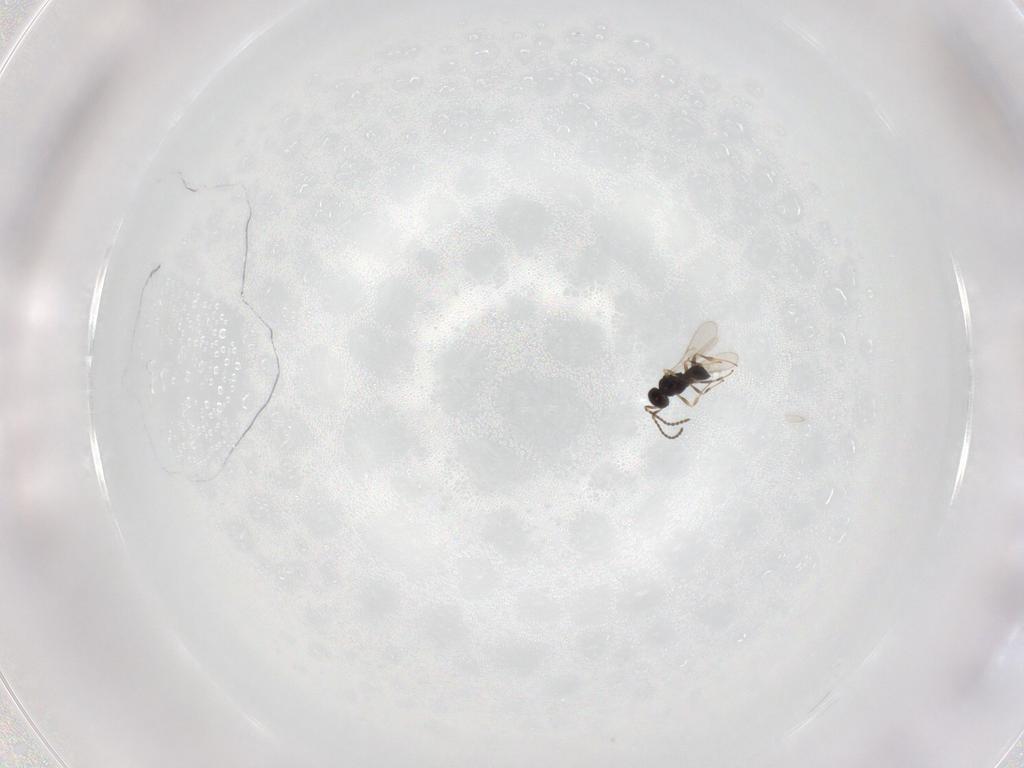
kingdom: Animalia
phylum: Arthropoda
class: Insecta
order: Hymenoptera
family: Scelionidae
